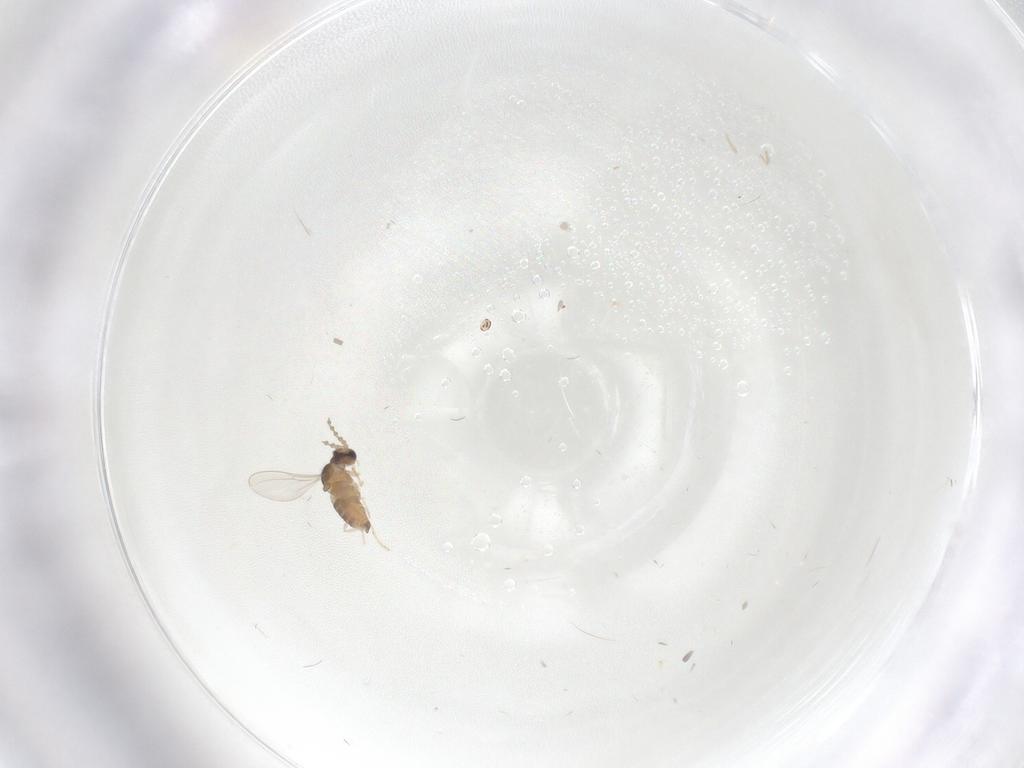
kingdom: Animalia
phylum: Arthropoda
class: Insecta
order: Diptera
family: Cecidomyiidae
